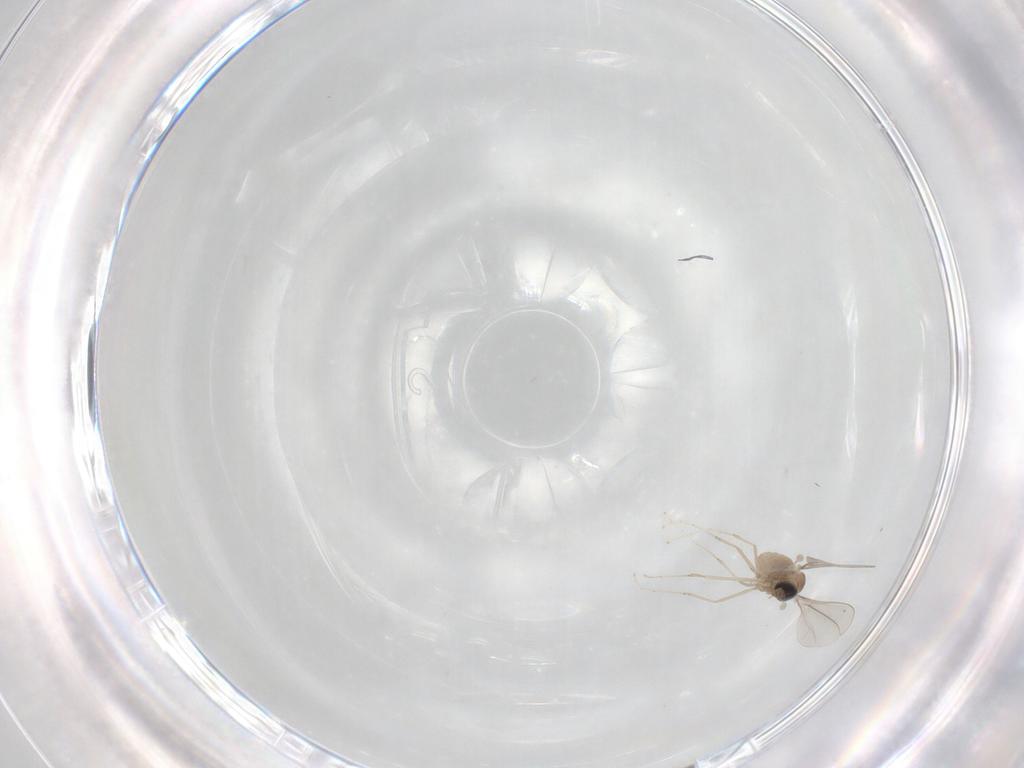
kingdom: Animalia
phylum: Arthropoda
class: Insecta
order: Diptera
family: Cecidomyiidae
